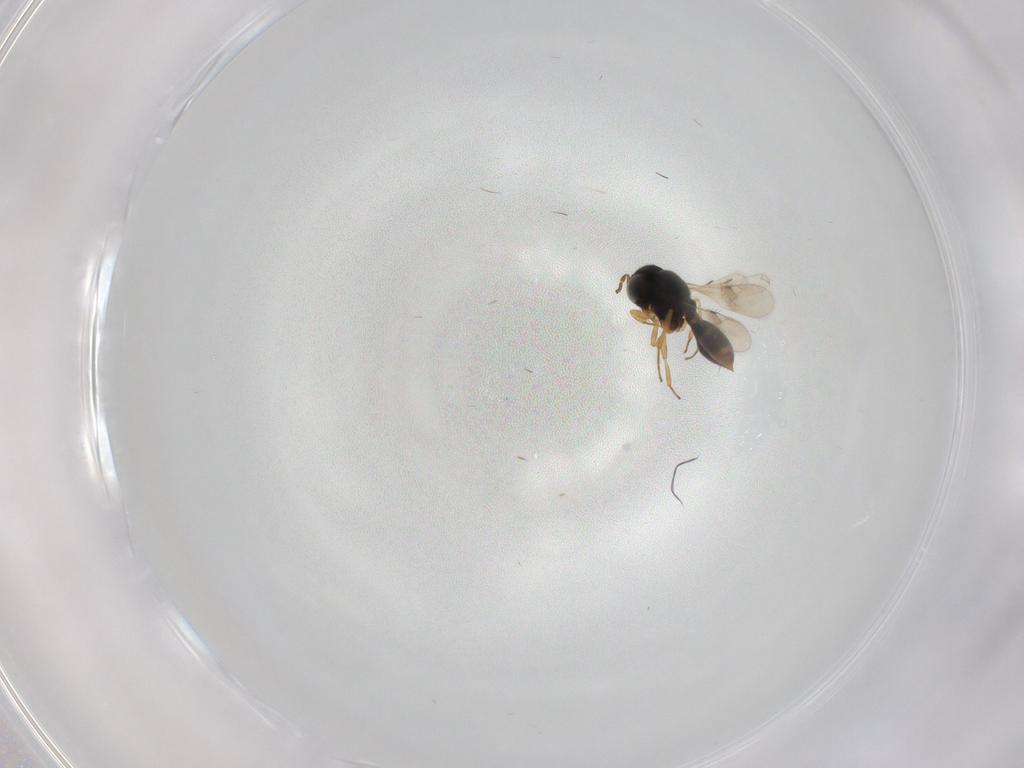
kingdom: Animalia
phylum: Arthropoda
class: Insecta
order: Hymenoptera
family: Scelionidae
